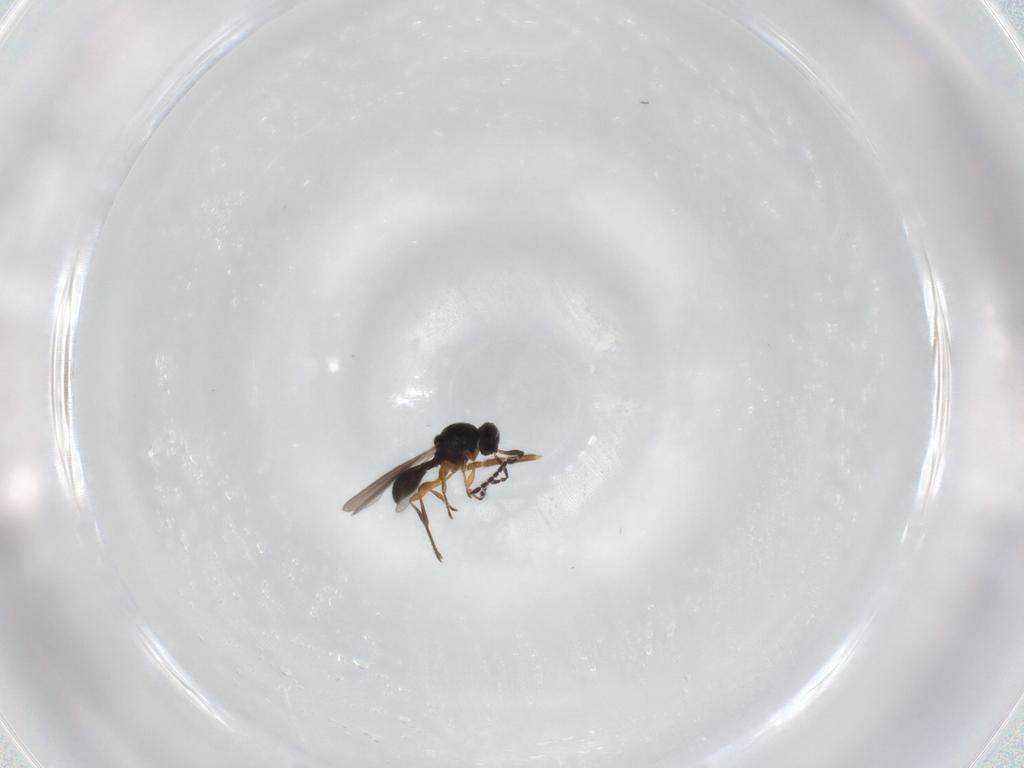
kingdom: Animalia
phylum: Arthropoda
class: Insecta
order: Hymenoptera
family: Formicidae
